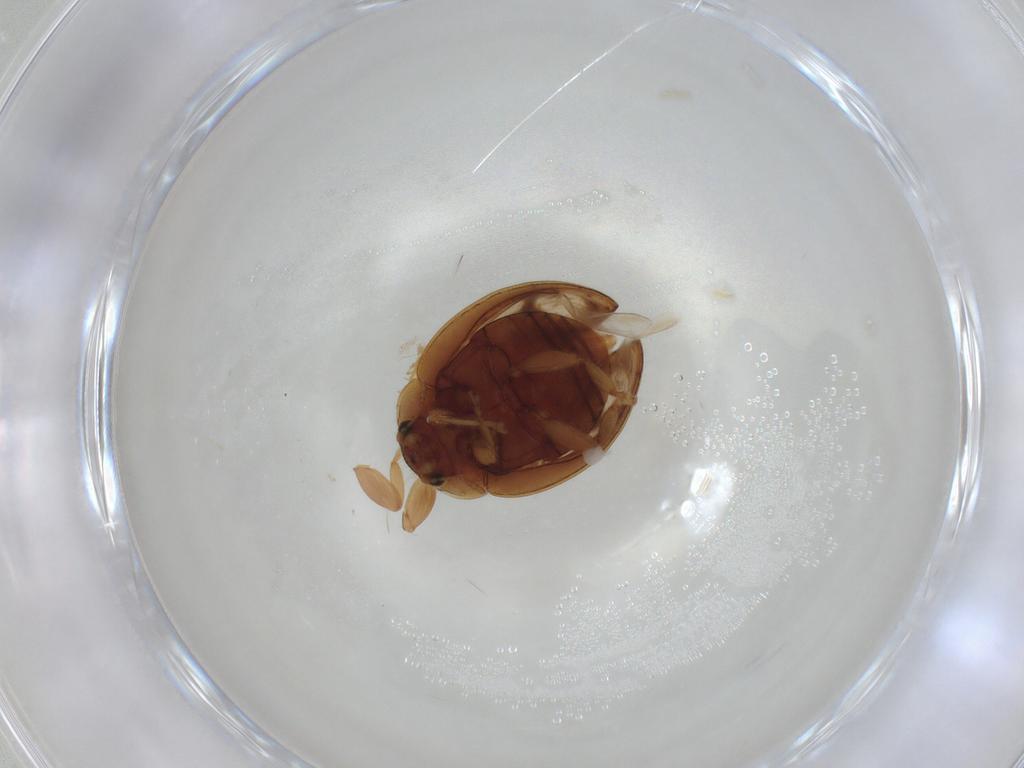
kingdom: Animalia
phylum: Arthropoda
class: Insecta
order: Coleoptera
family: Coccinellidae
